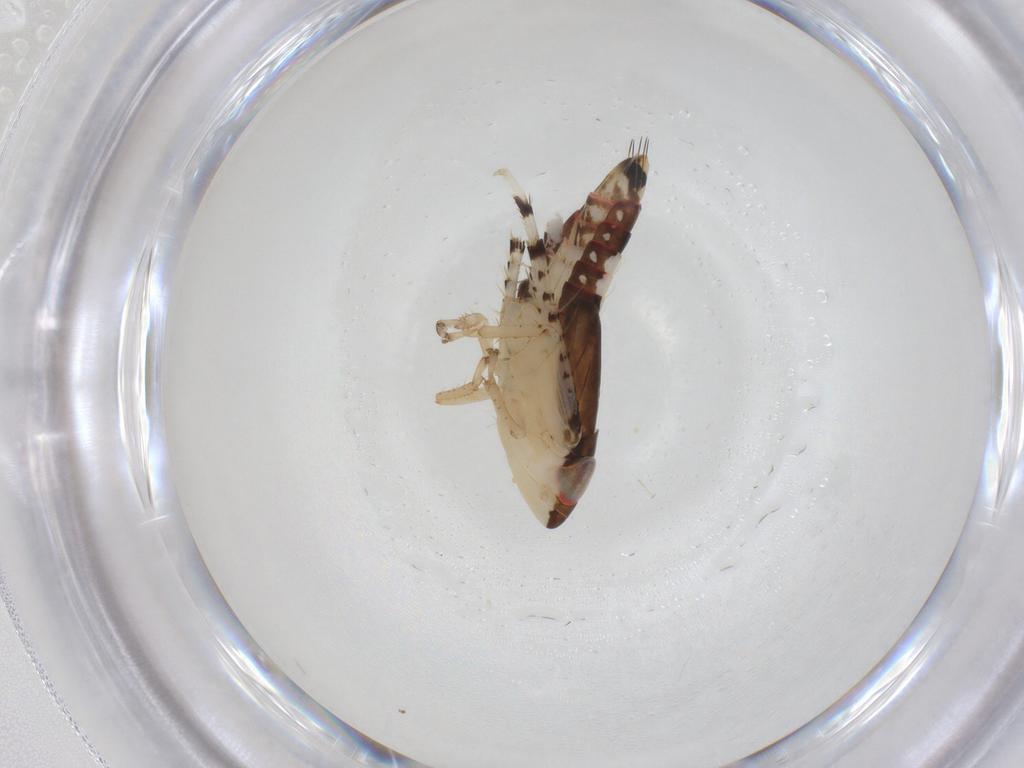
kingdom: Animalia
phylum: Arthropoda
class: Insecta
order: Hemiptera
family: Cicadellidae
